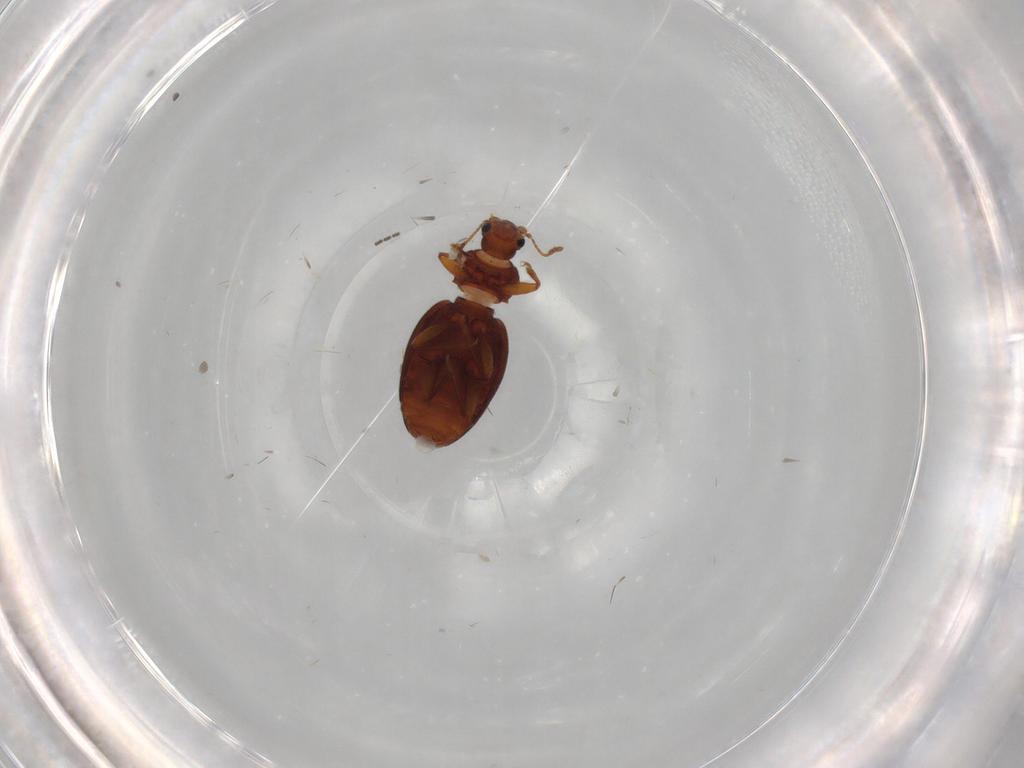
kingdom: Animalia
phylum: Arthropoda
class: Insecta
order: Coleoptera
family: Latridiidae
